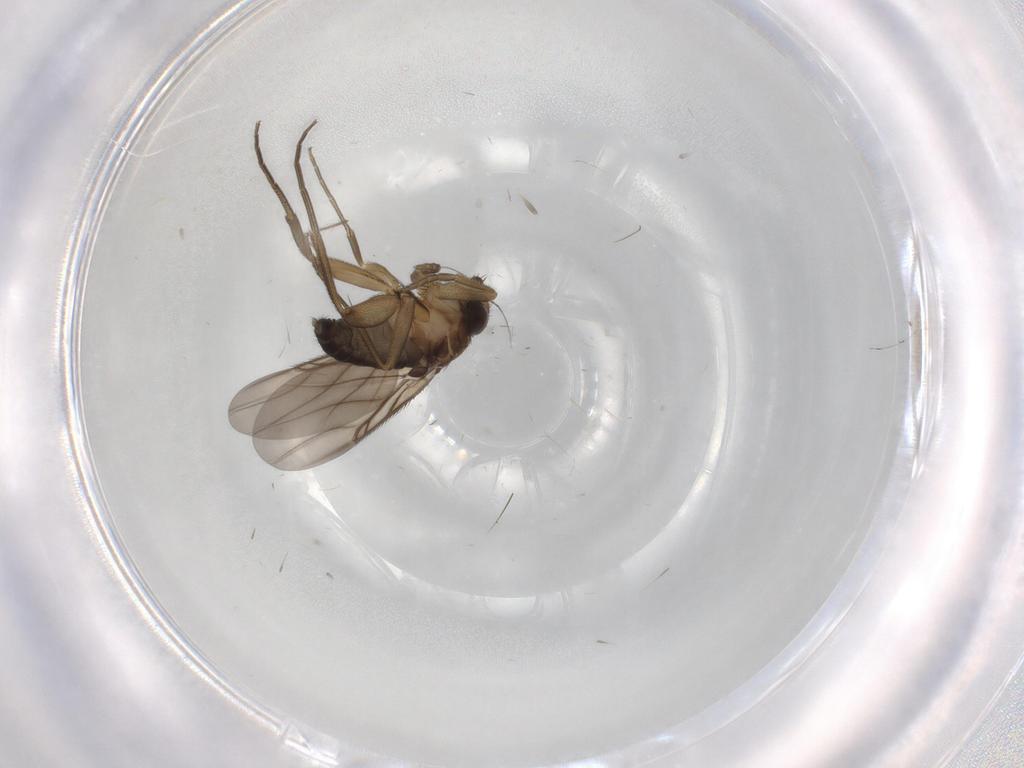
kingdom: Animalia
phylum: Arthropoda
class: Insecta
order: Diptera
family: Phoridae
